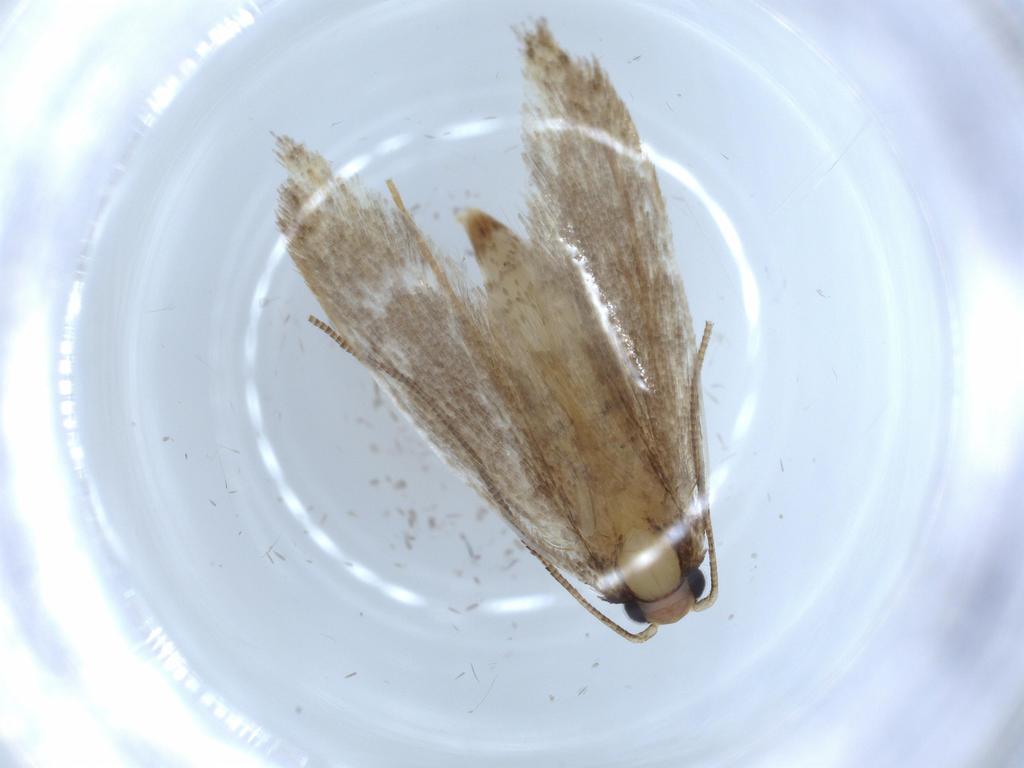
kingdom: Animalia
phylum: Arthropoda
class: Insecta
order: Lepidoptera
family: Tineidae
